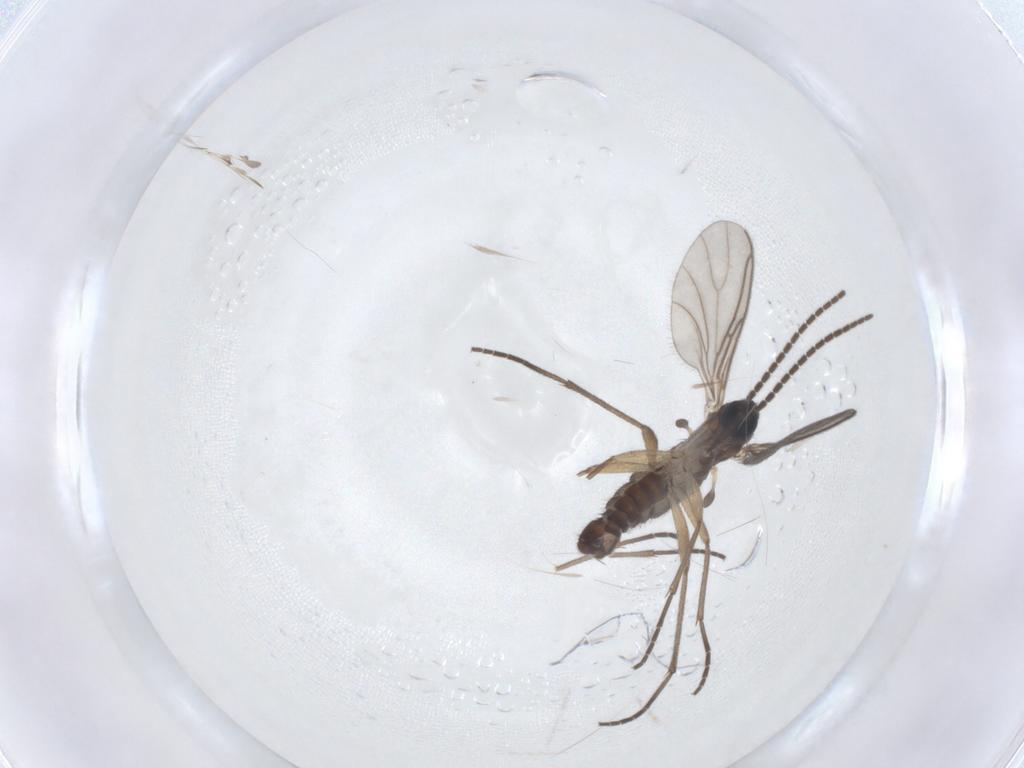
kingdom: Animalia
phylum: Arthropoda
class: Insecta
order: Diptera
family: Sciaridae
